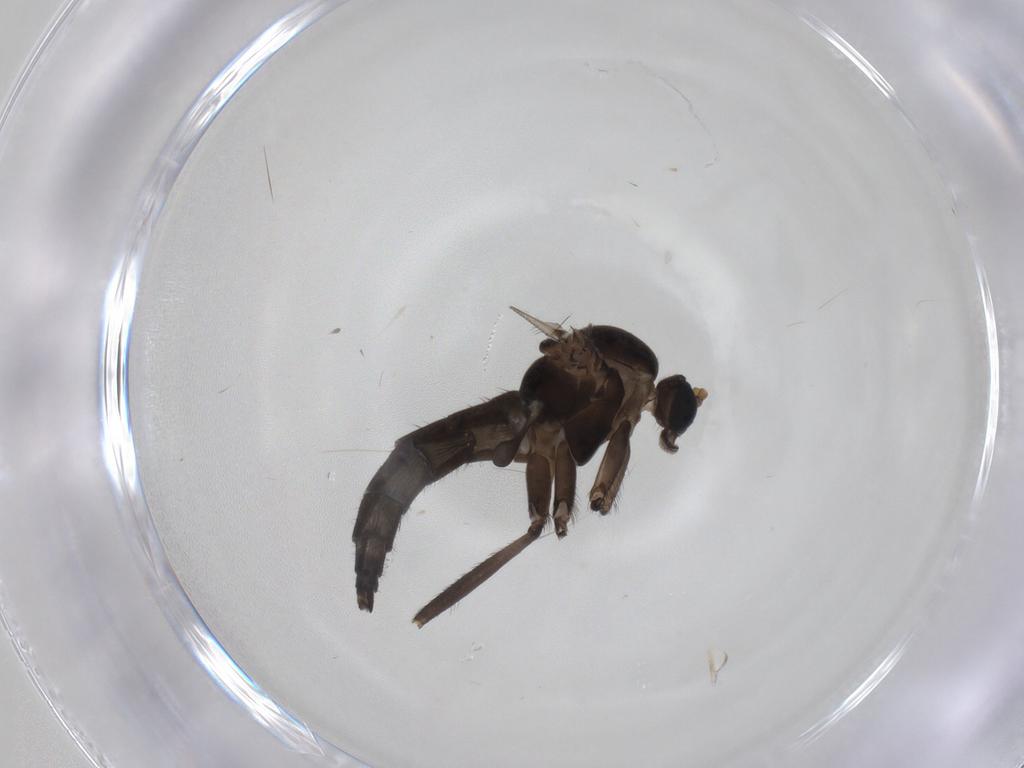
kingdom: Animalia
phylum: Arthropoda
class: Insecta
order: Diptera
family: Sciaridae
